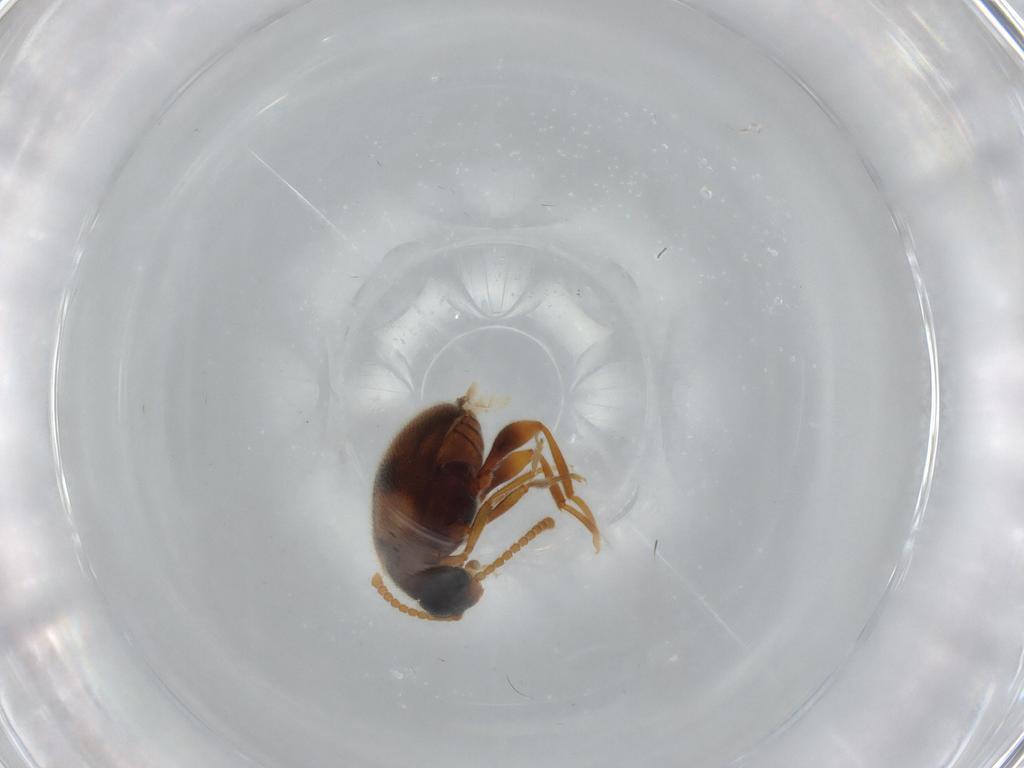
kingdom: Animalia
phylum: Arthropoda
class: Insecta
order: Coleoptera
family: Aderidae
